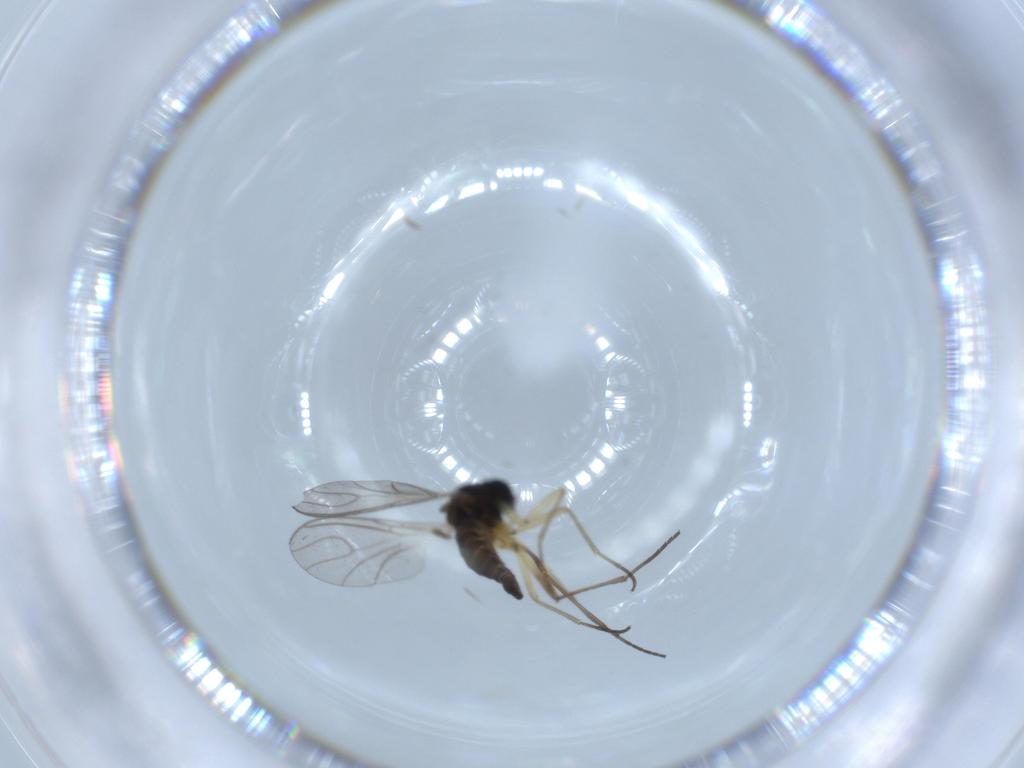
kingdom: Animalia
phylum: Arthropoda
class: Insecta
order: Diptera
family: Sciaridae
